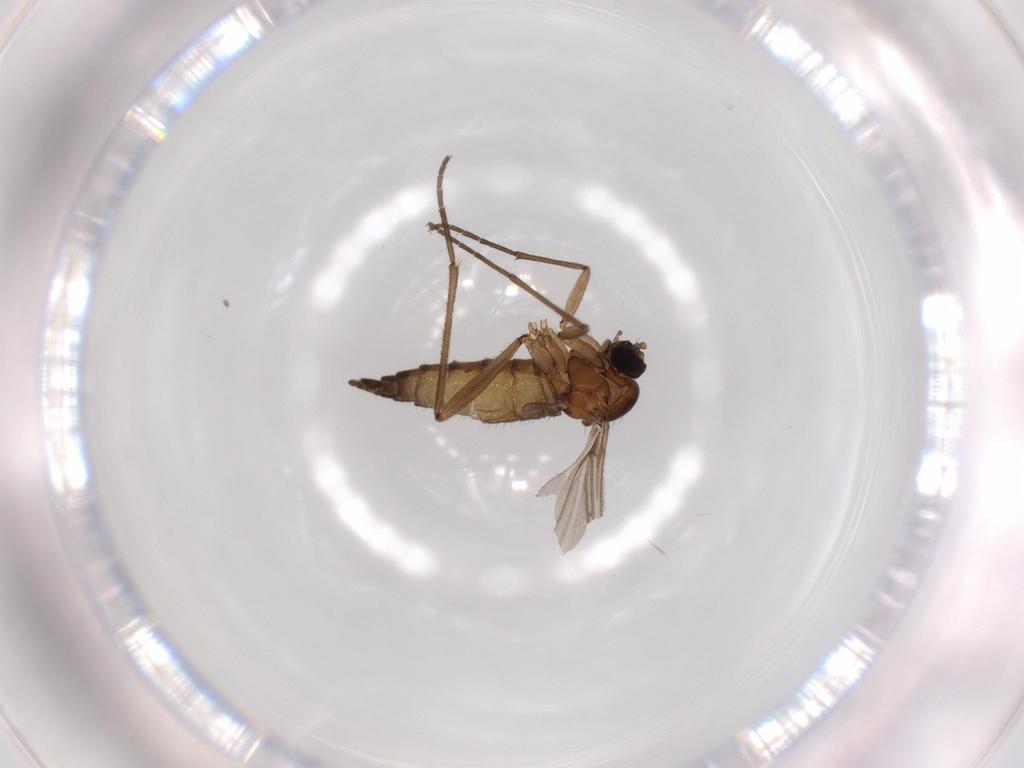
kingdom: Animalia
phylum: Arthropoda
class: Insecta
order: Diptera
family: Sciaridae
